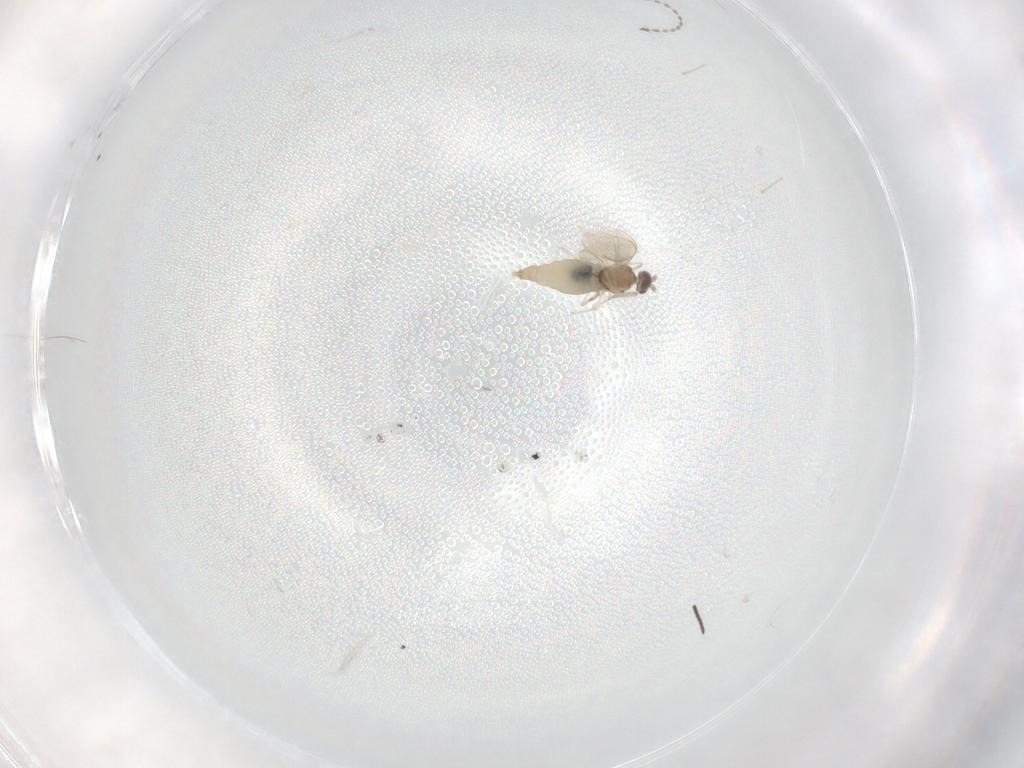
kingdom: Animalia
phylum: Arthropoda
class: Insecta
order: Diptera
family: Cecidomyiidae
